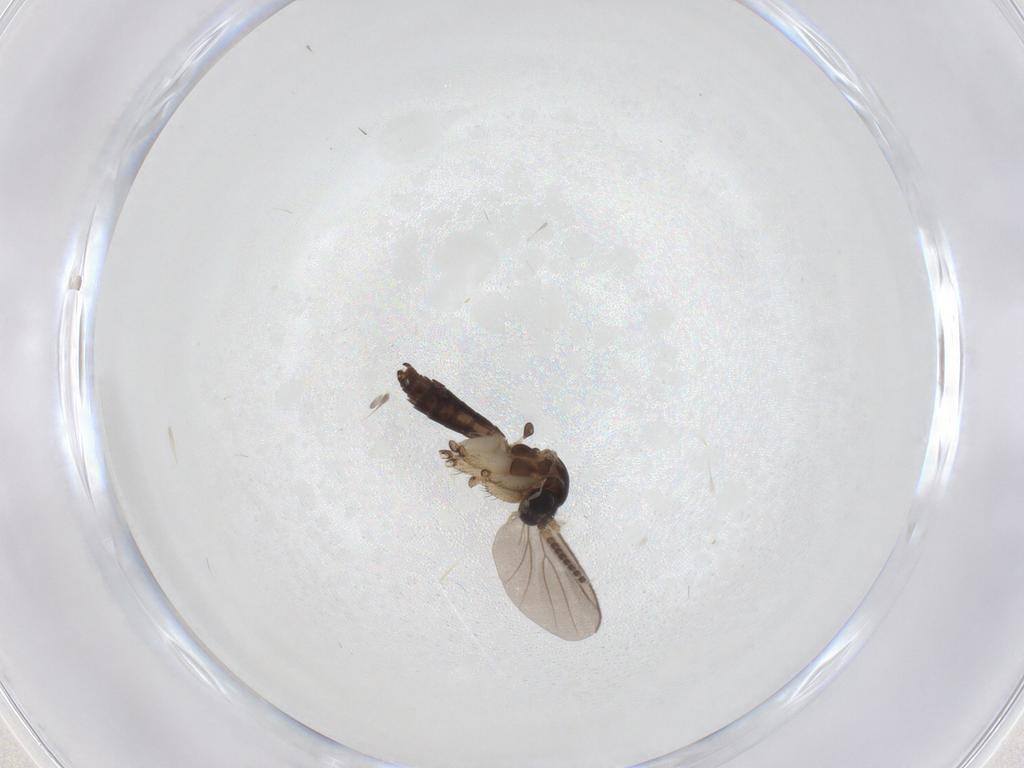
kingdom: Animalia
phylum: Arthropoda
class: Insecta
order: Diptera
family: Mycetophilidae
